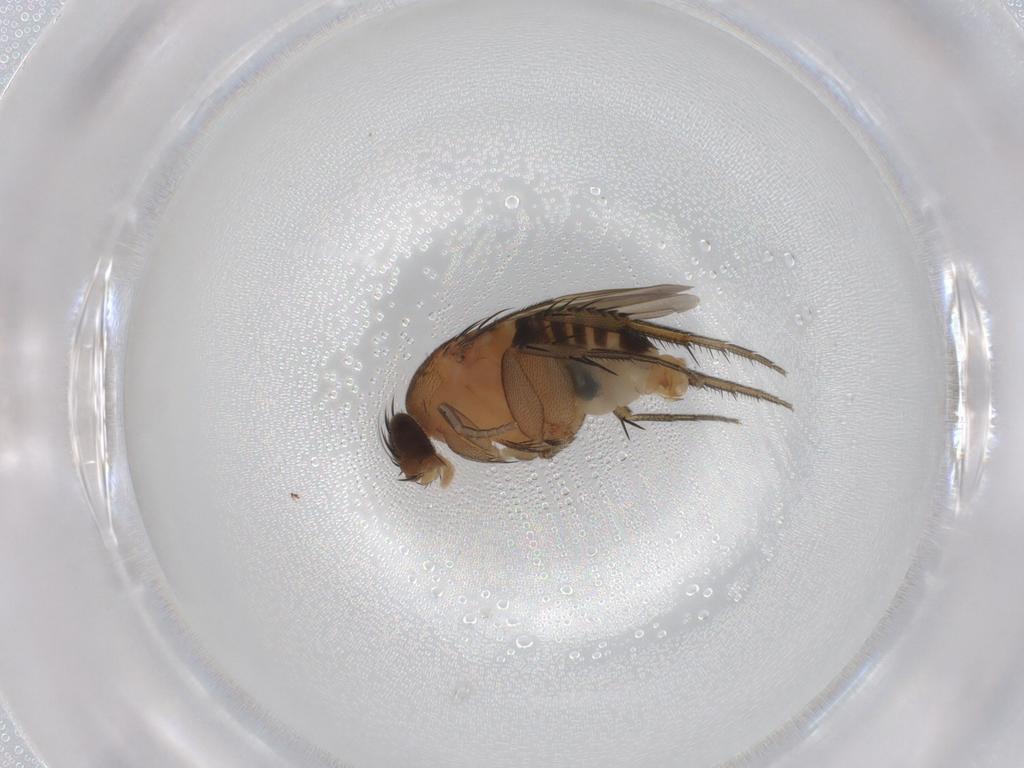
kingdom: Animalia
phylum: Arthropoda
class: Insecta
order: Diptera
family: Phoridae
